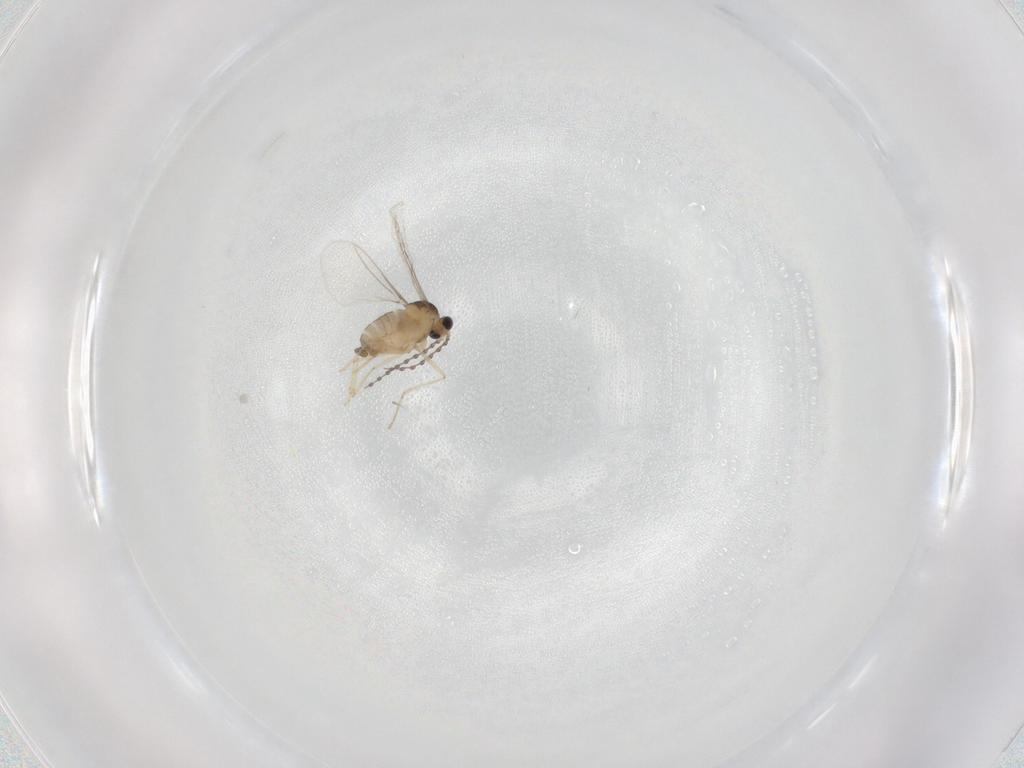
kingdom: Animalia
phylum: Arthropoda
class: Insecta
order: Diptera
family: Cecidomyiidae
